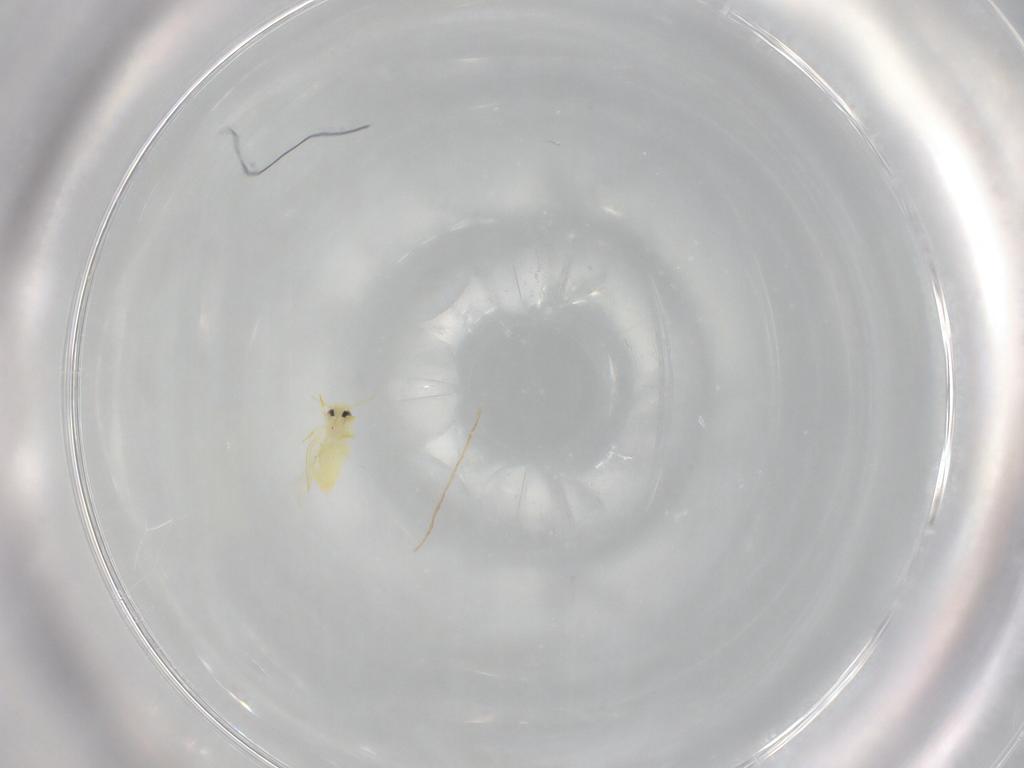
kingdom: Animalia
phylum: Arthropoda
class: Insecta
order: Hemiptera
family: Aleyrodidae
